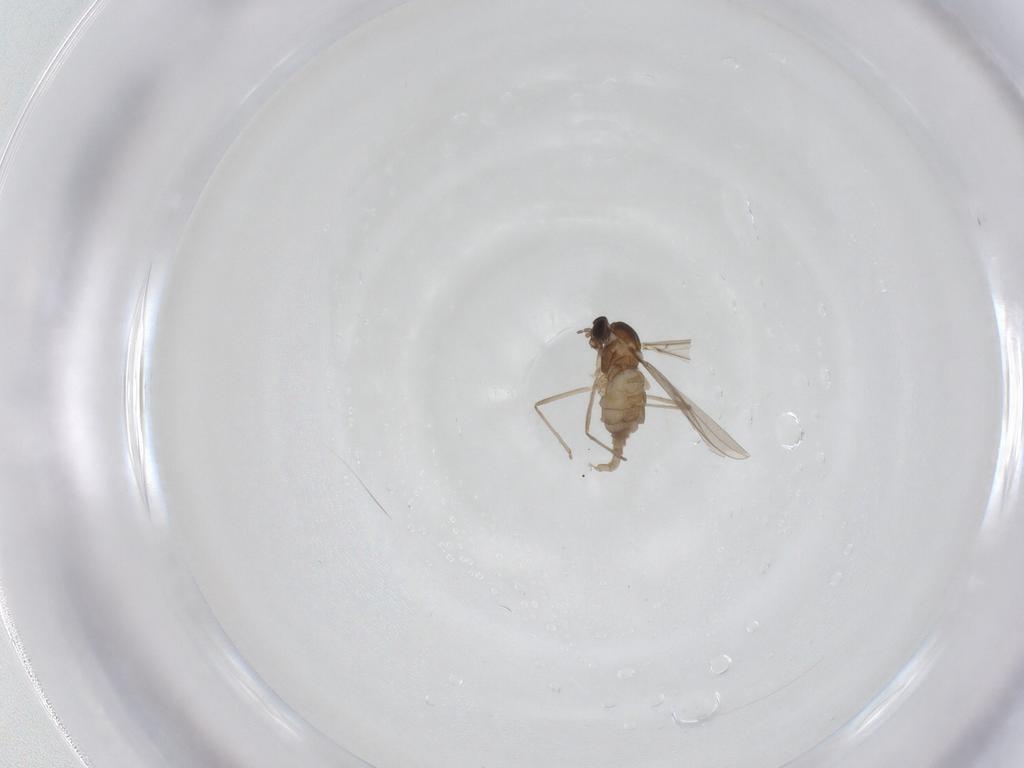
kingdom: Animalia
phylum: Arthropoda
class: Insecta
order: Diptera
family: Cecidomyiidae
